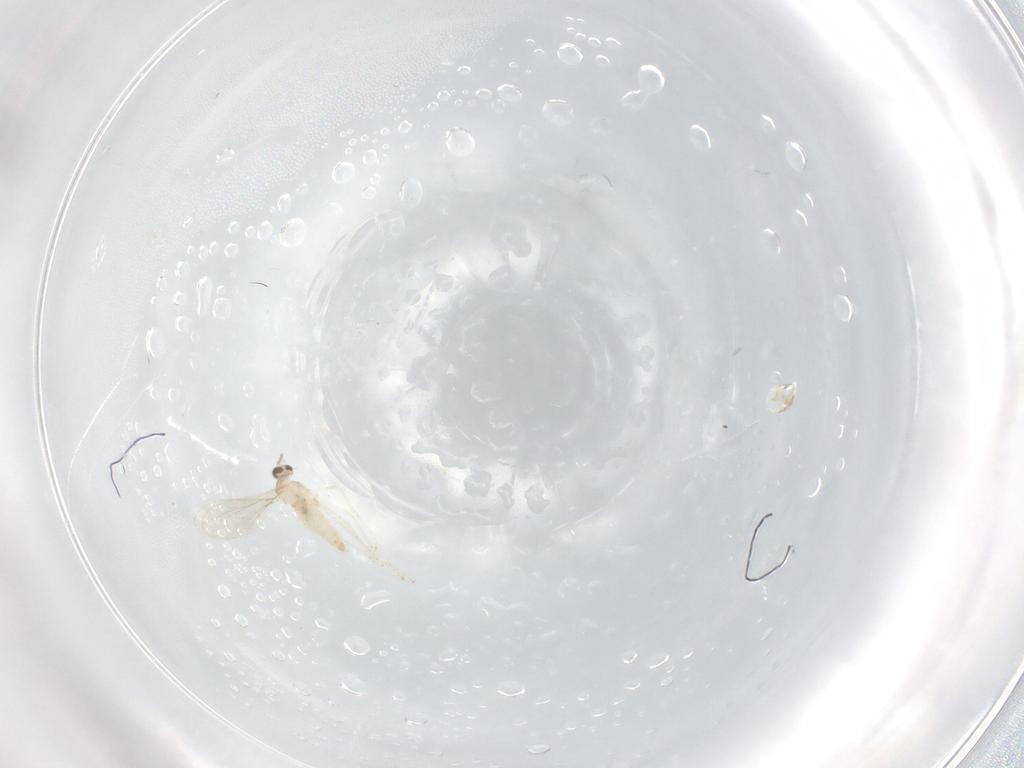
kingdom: Animalia
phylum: Arthropoda
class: Insecta
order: Diptera
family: Cecidomyiidae
